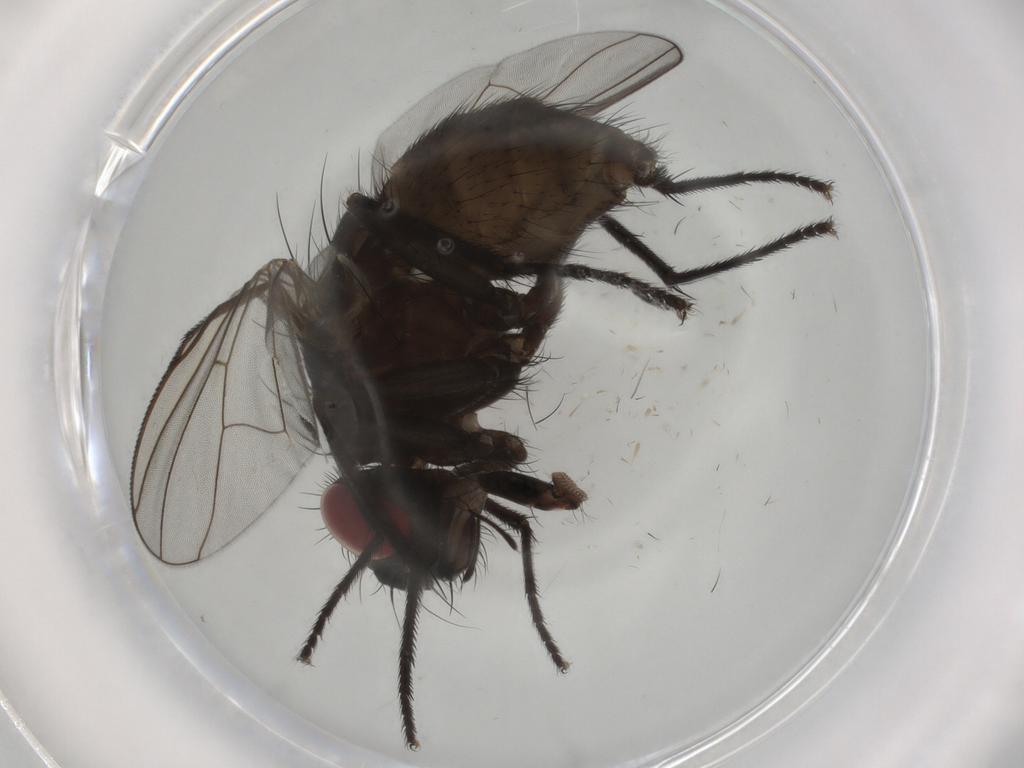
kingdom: Animalia
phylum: Arthropoda
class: Insecta
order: Diptera
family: Muscidae
